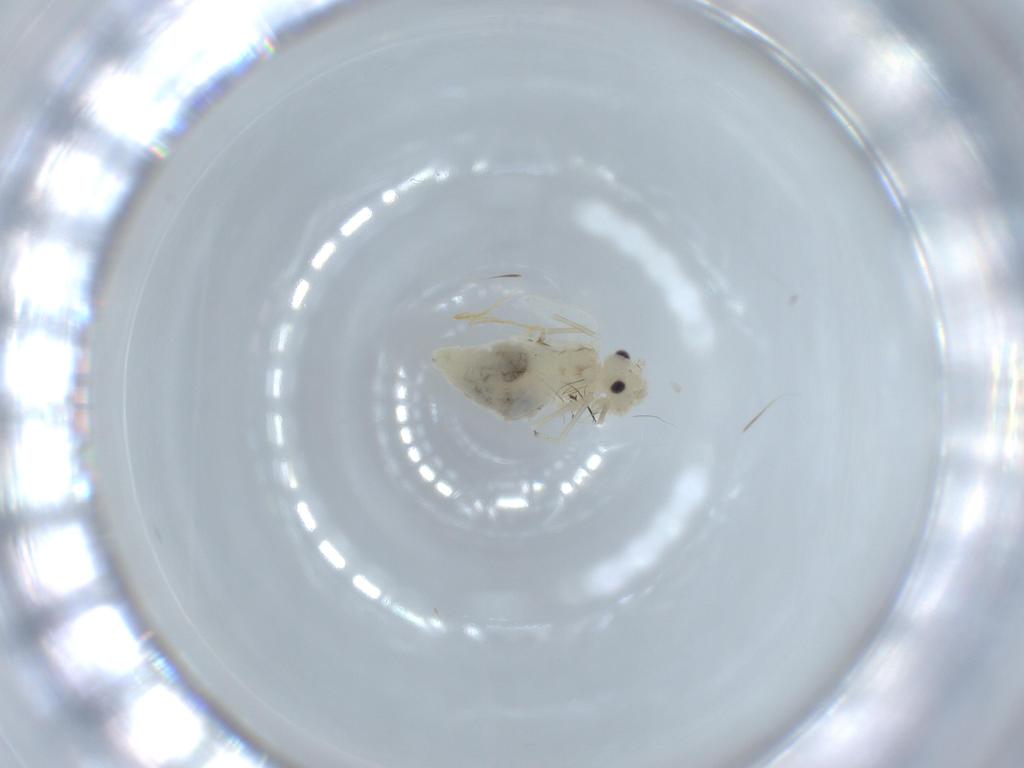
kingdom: Animalia
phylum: Arthropoda
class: Insecta
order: Psocodea
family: Caeciliusidae
